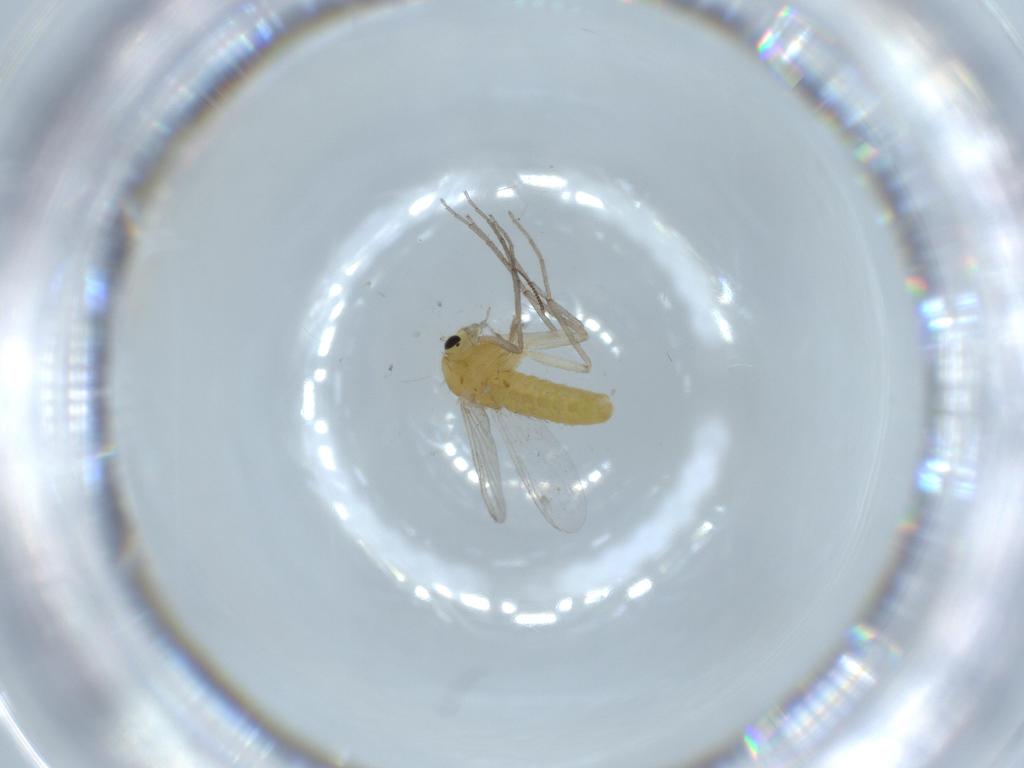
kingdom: Animalia
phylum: Arthropoda
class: Insecta
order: Diptera
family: Chironomidae
